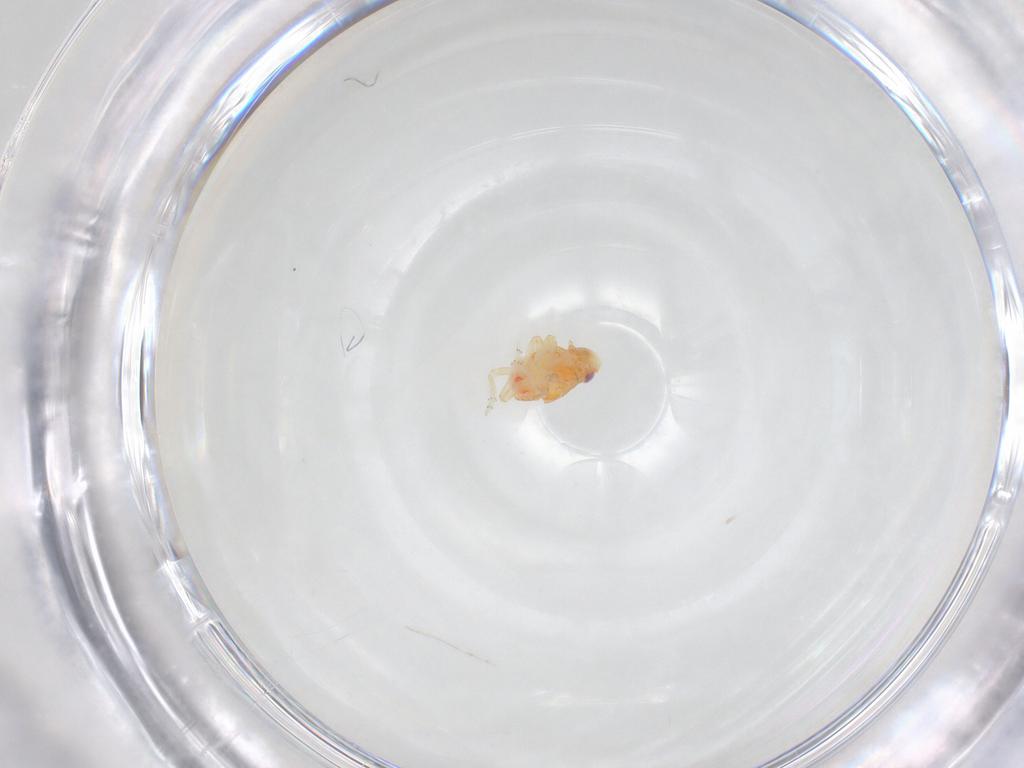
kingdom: Animalia
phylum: Arthropoda
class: Insecta
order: Hemiptera
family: Issidae
